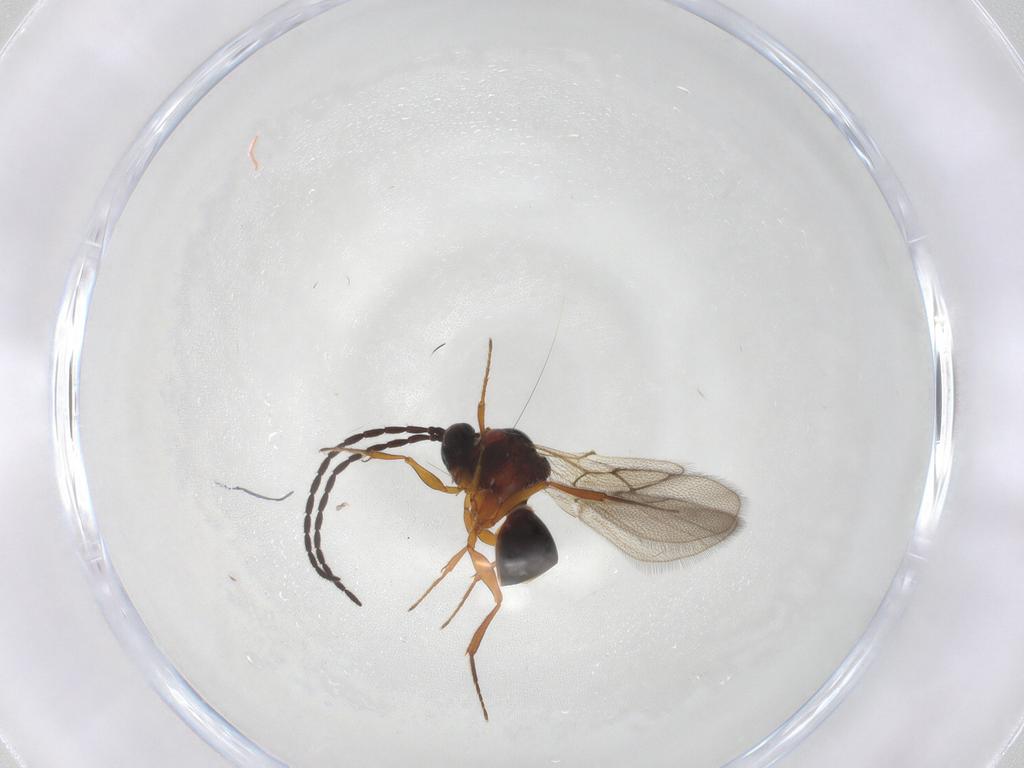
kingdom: Animalia
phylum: Arthropoda
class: Insecta
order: Hymenoptera
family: Figitidae
